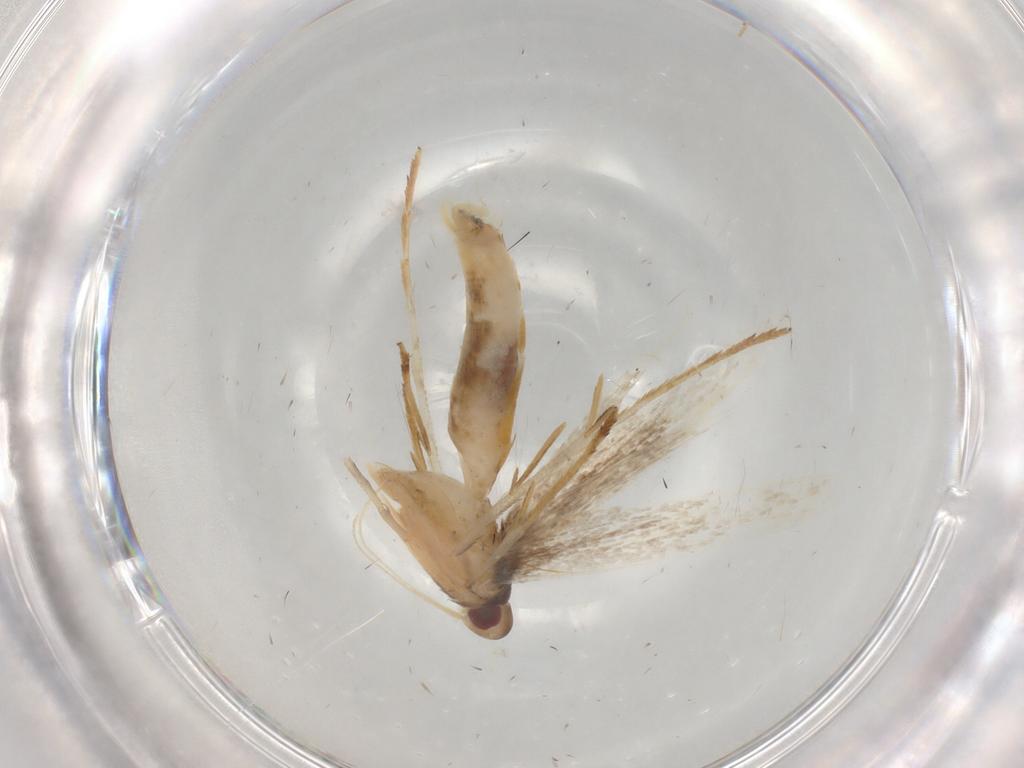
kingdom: Animalia
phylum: Arthropoda
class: Insecta
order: Lepidoptera
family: Cosmopterigidae
